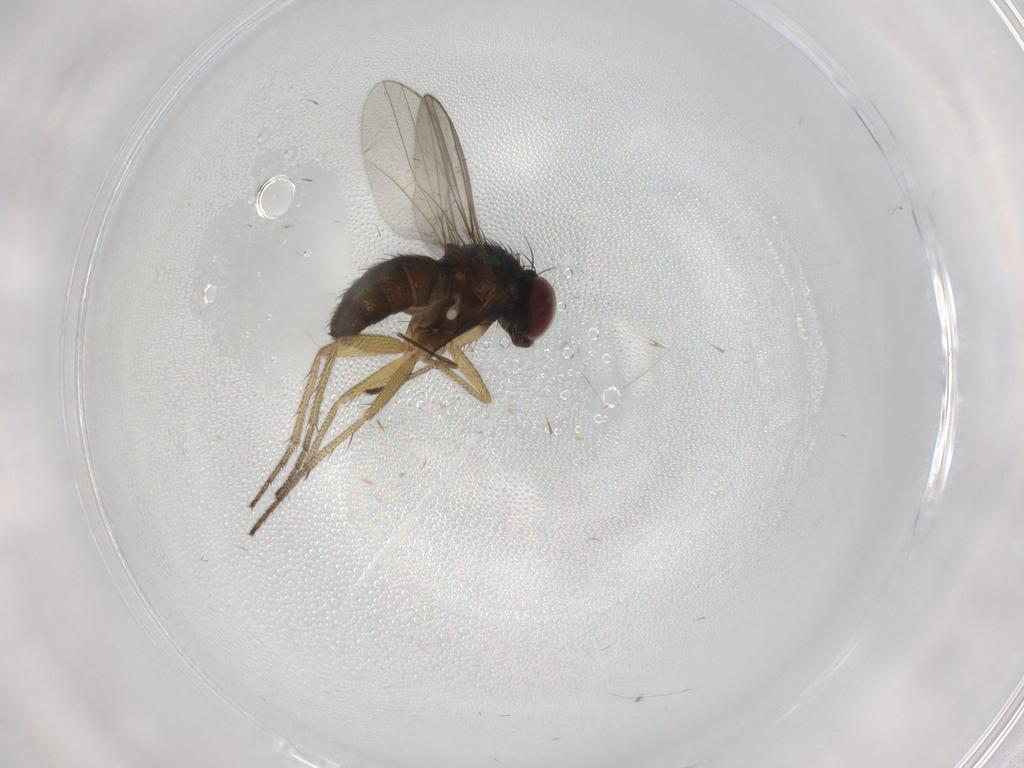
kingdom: Animalia
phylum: Arthropoda
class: Insecta
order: Diptera
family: Chironomidae
